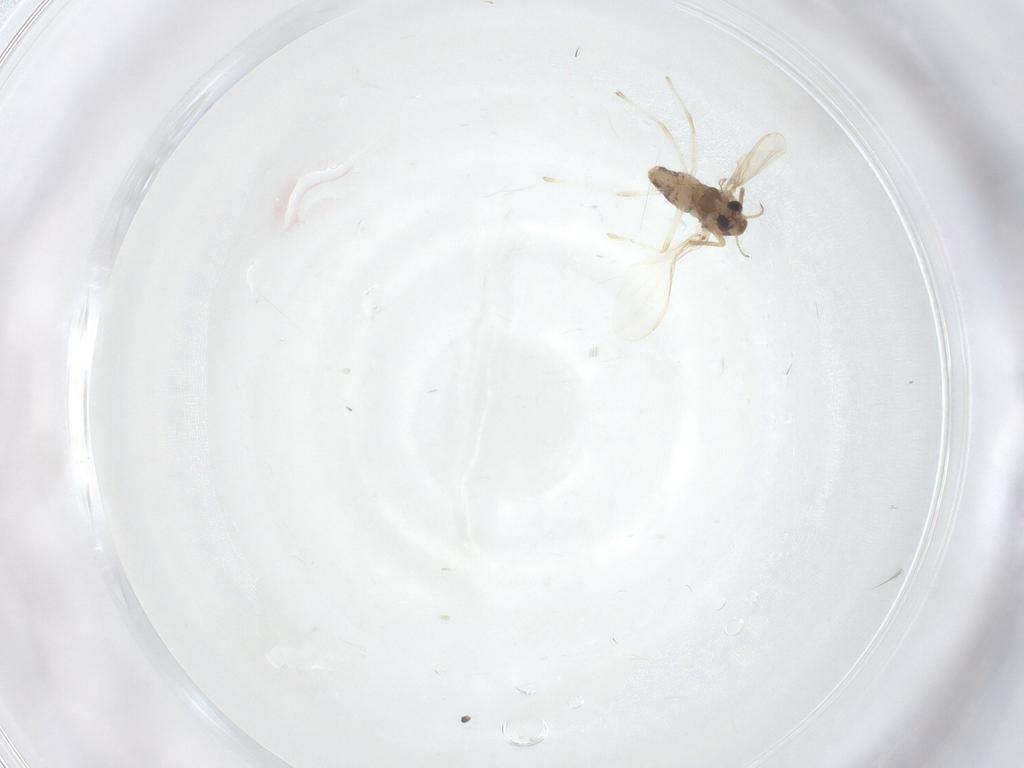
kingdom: Animalia
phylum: Arthropoda
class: Insecta
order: Diptera
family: Chironomidae
